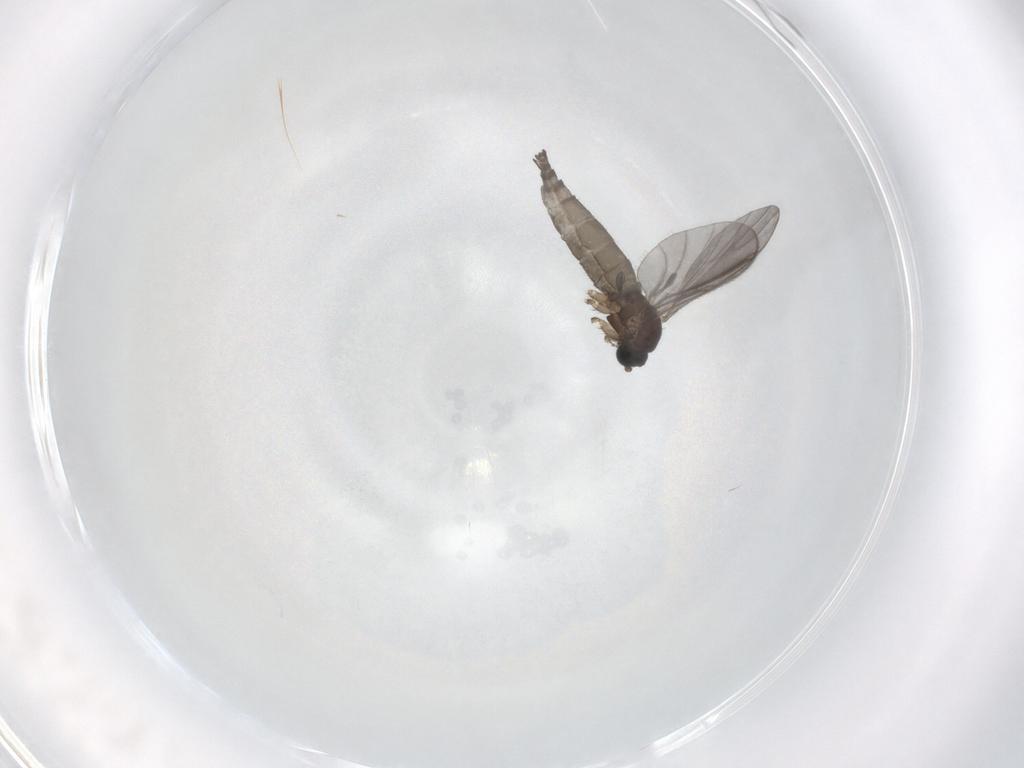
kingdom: Animalia
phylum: Arthropoda
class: Insecta
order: Diptera
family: Sciaridae
